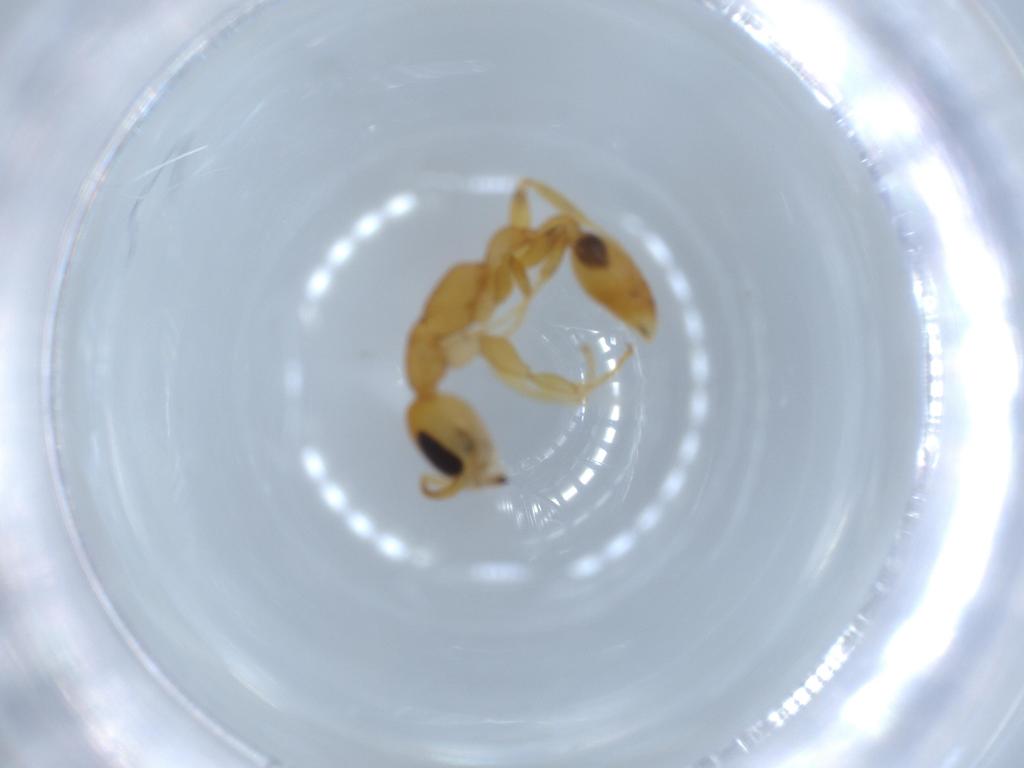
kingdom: Animalia
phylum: Arthropoda
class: Insecta
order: Hymenoptera
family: Formicidae
